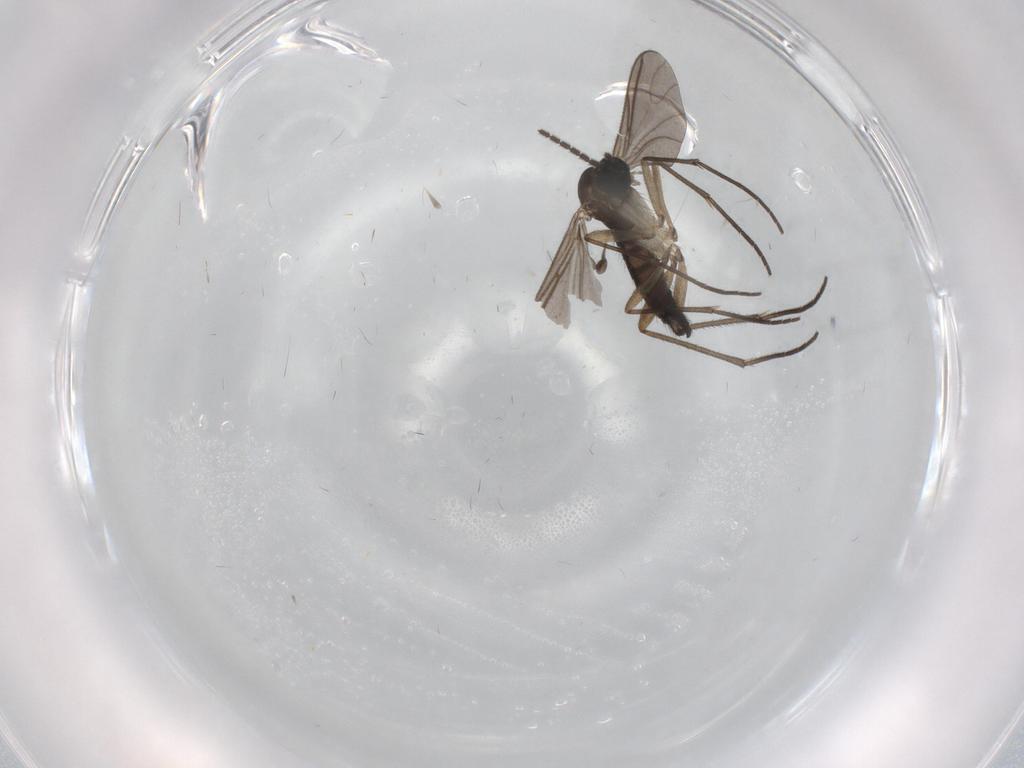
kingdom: Animalia
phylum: Arthropoda
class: Insecta
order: Diptera
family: Sciaridae
